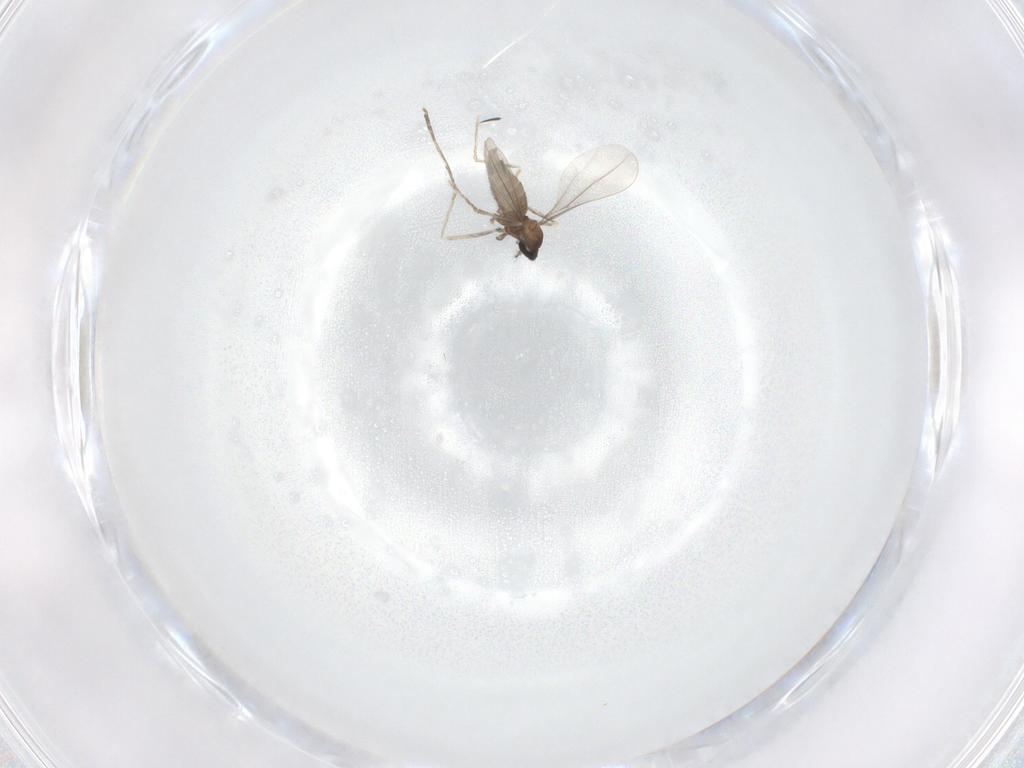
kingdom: Animalia
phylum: Arthropoda
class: Insecta
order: Diptera
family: Cecidomyiidae
